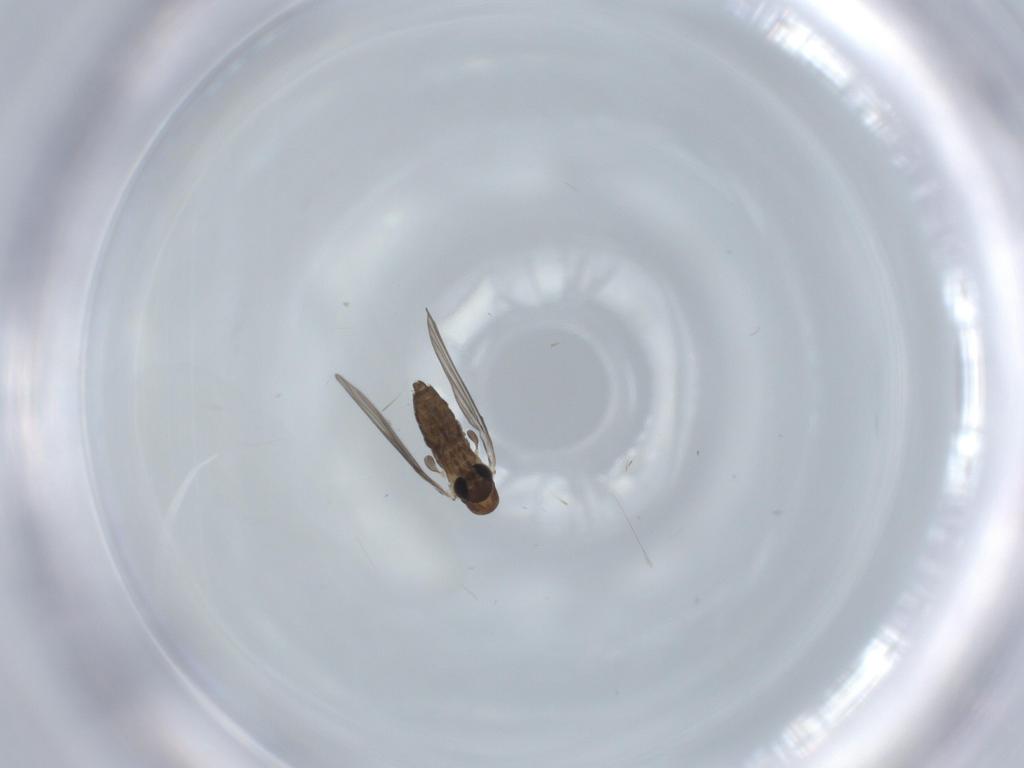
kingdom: Animalia
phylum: Arthropoda
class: Insecta
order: Diptera
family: Psychodidae
